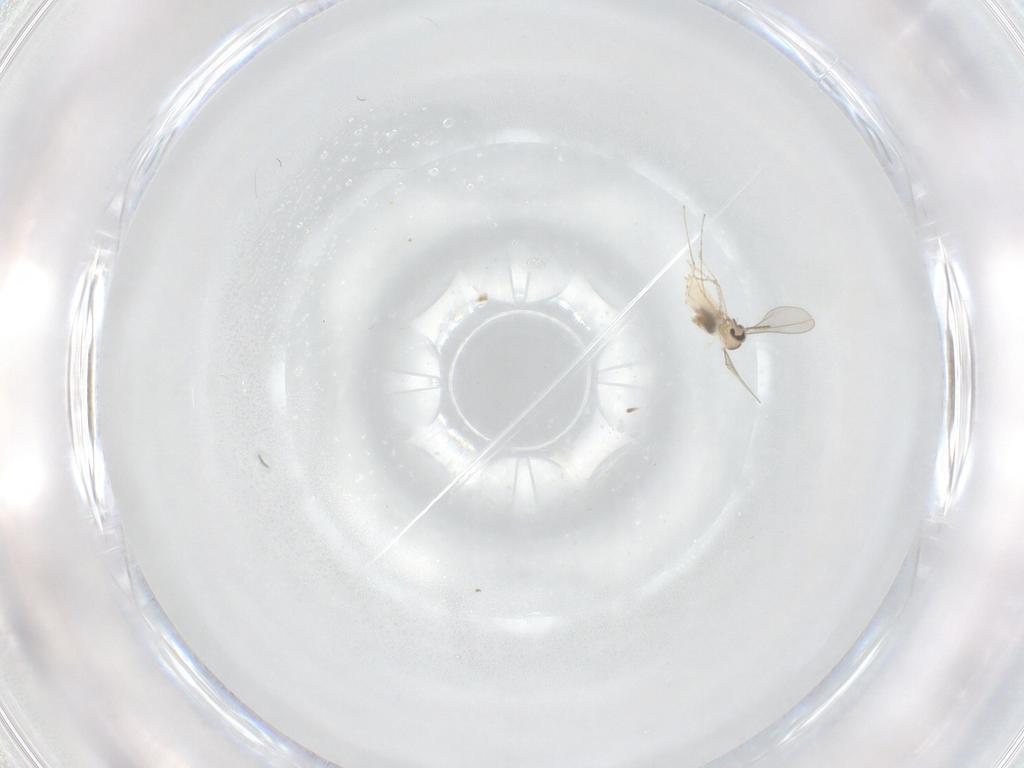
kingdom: Animalia
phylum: Arthropoda
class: Insecta
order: Diptera
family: Cecidomyiidae
